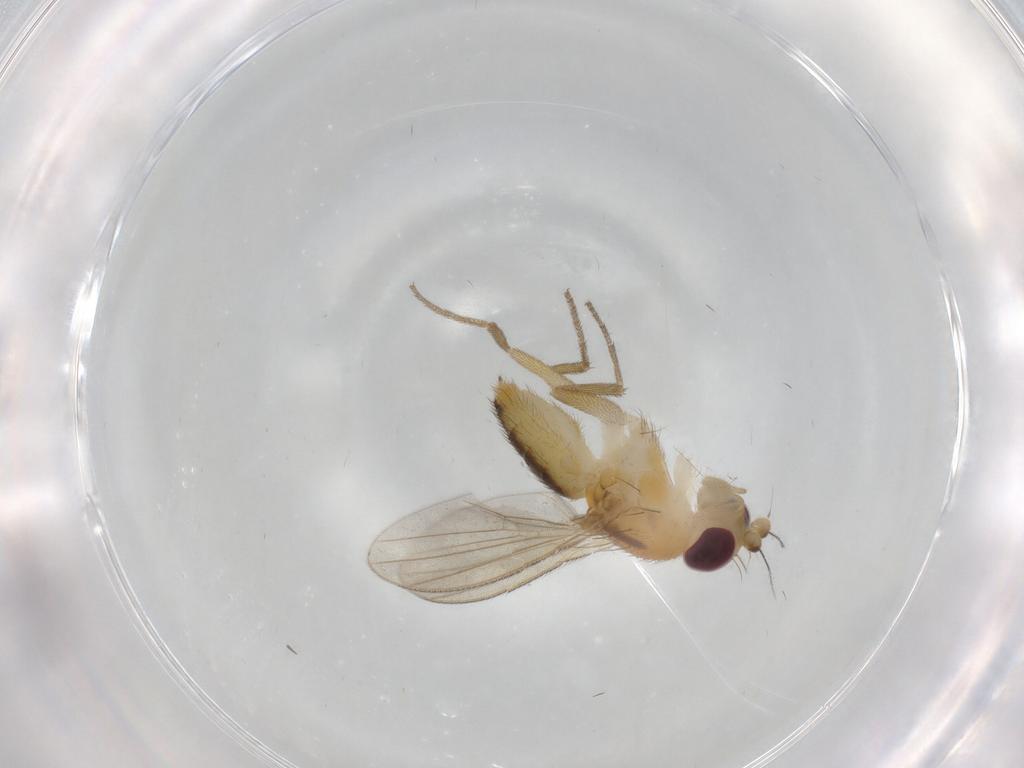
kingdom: Animalia
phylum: Arthropoda
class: Insecta
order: Diptera
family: Clusiidae
